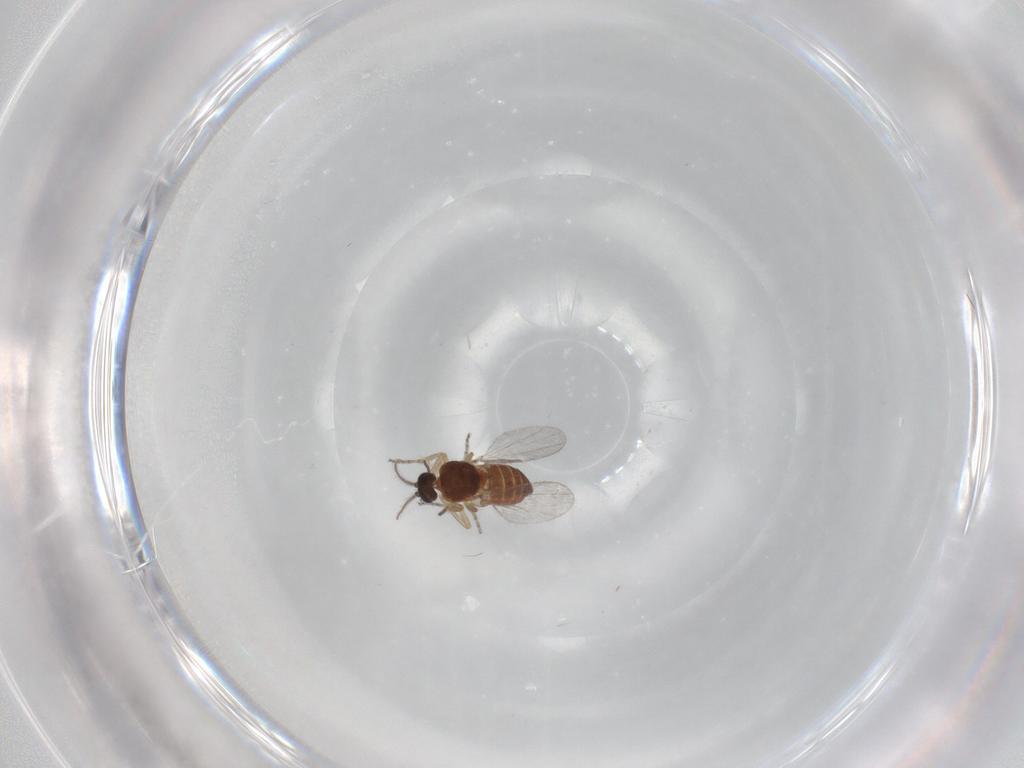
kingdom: Animalia
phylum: Arthropoda
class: Insecta
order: Diptera
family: Ceratopogonidae
